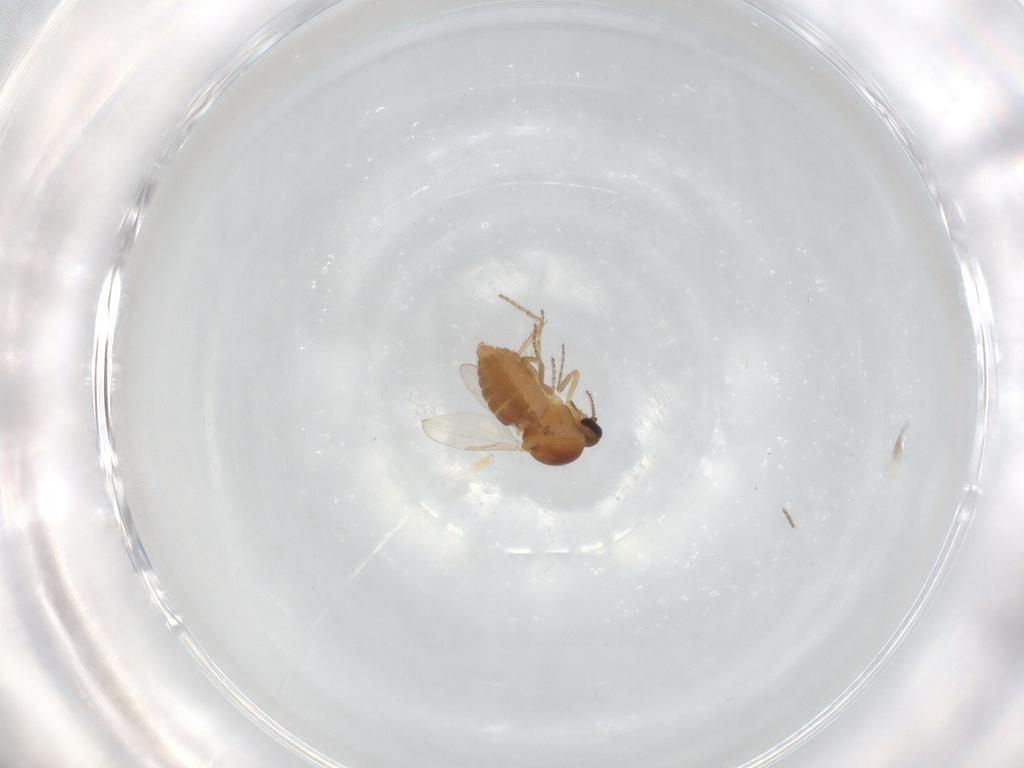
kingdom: Animalia
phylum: Arthropoda
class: Insecta
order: Diptera
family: Ceratopogonidae
